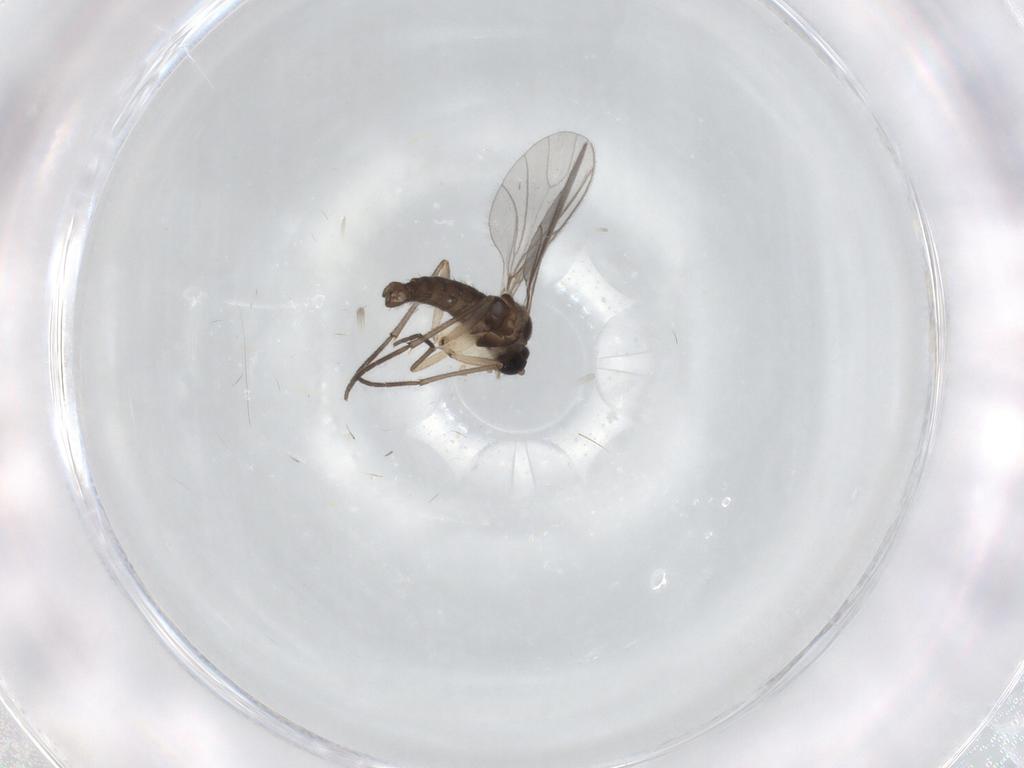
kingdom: Animalia
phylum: Arthropoda
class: Insecta
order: Diptera
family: Sciaridae
